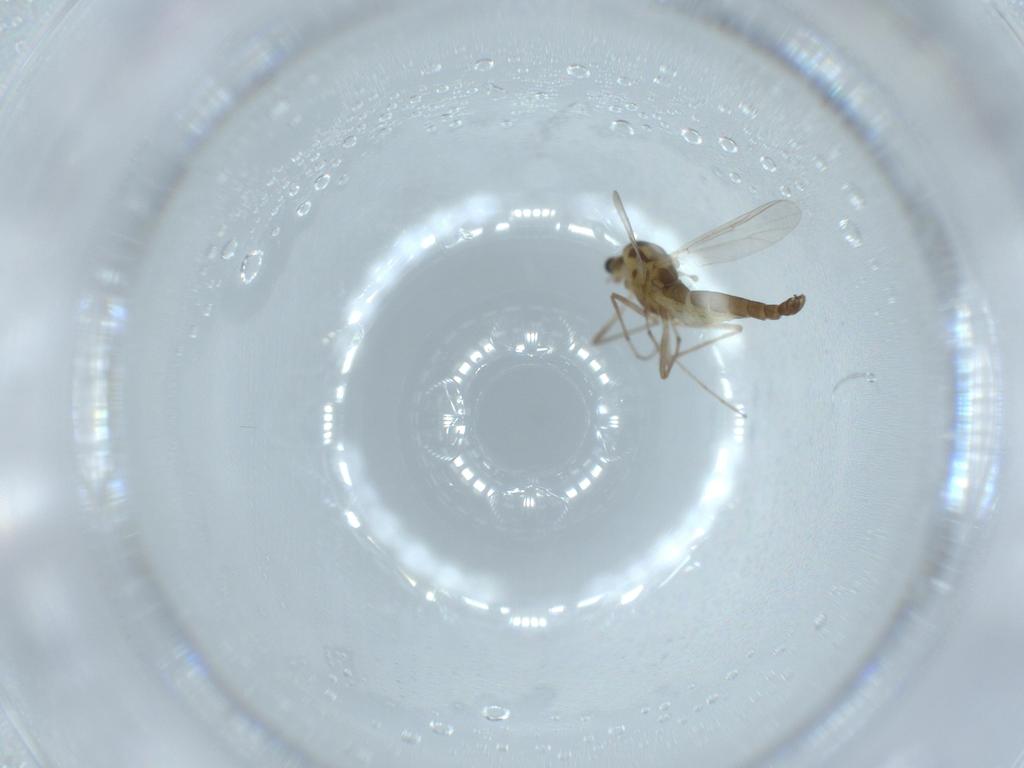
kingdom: Animalia
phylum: Arthropoda
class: Insecta
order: Diptera
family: Chironomidae
